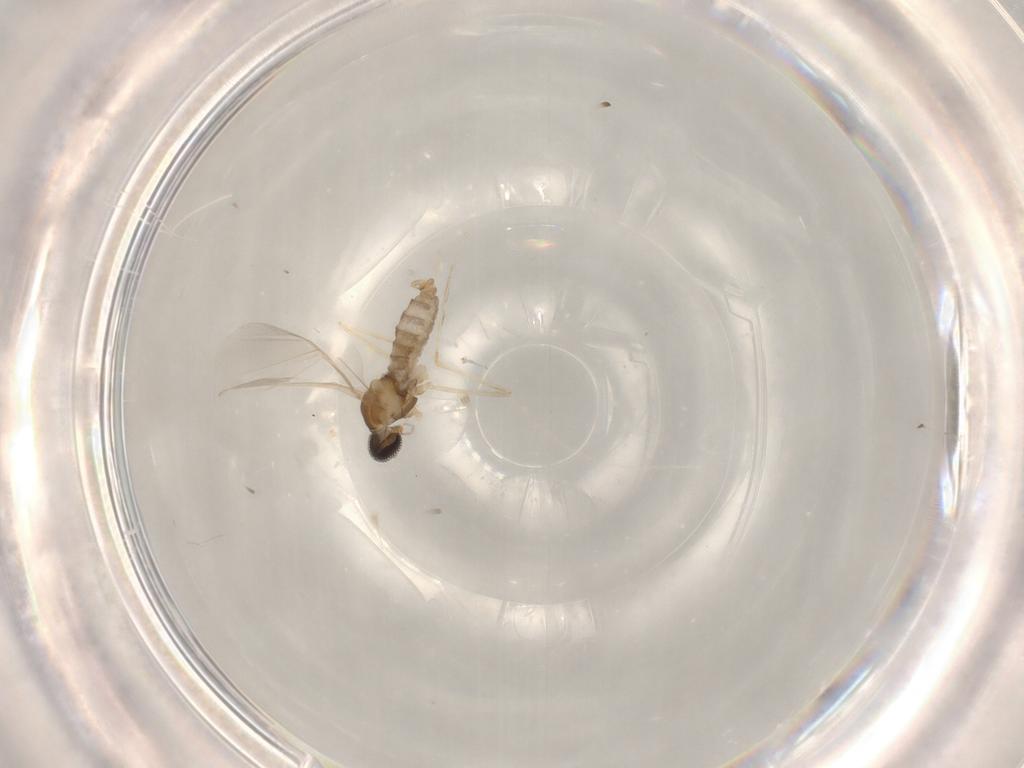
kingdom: Animalia
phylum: Arthropoda
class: Insecta
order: Diptera
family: Cecidomyiidae
